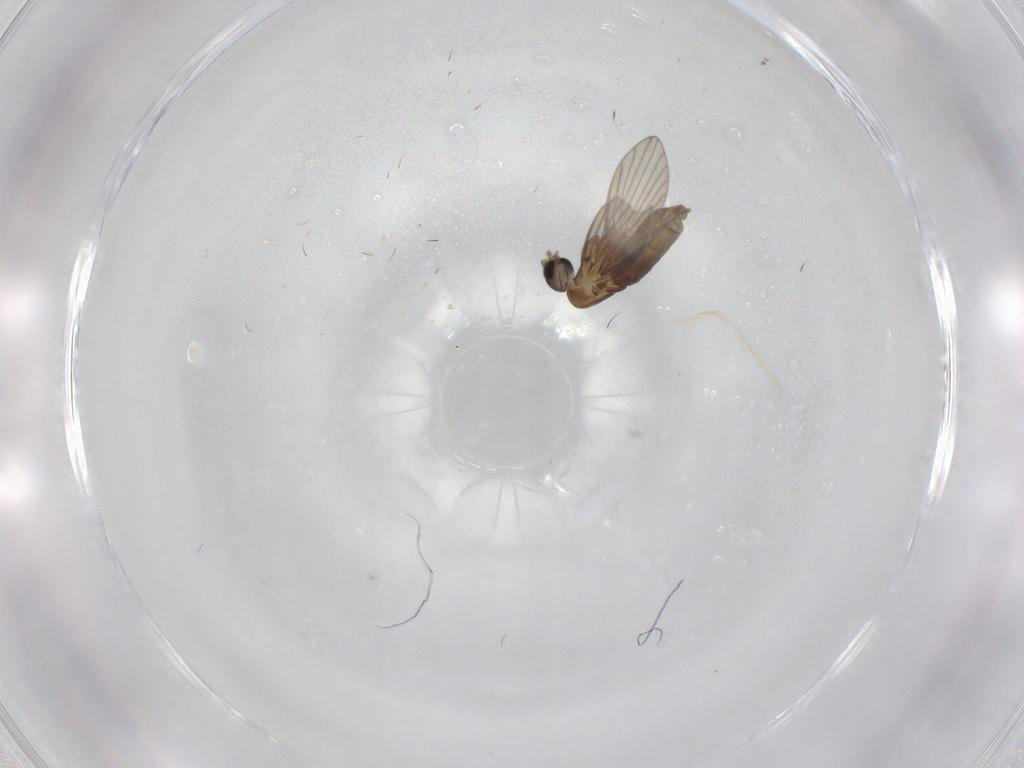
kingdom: Animalia
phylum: Arthropoda
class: Insecta
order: Diptera
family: Psychodidae
